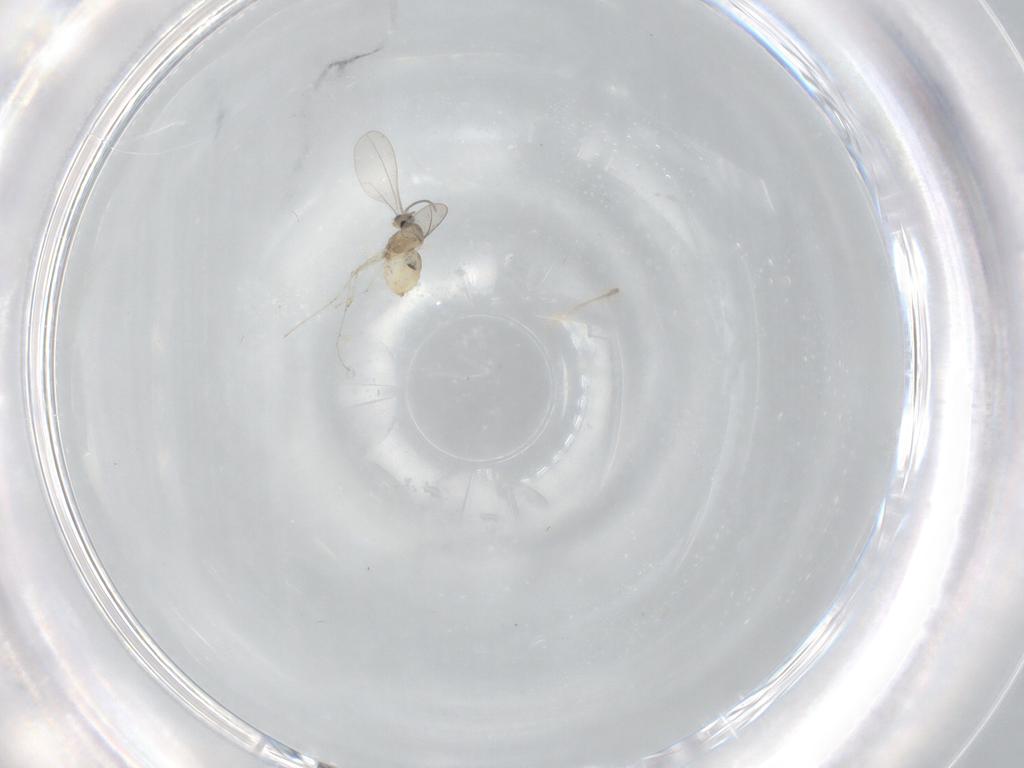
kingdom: Animalia
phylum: Arthropoda
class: Insecta
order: Diptera
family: Cecidomyiidae
